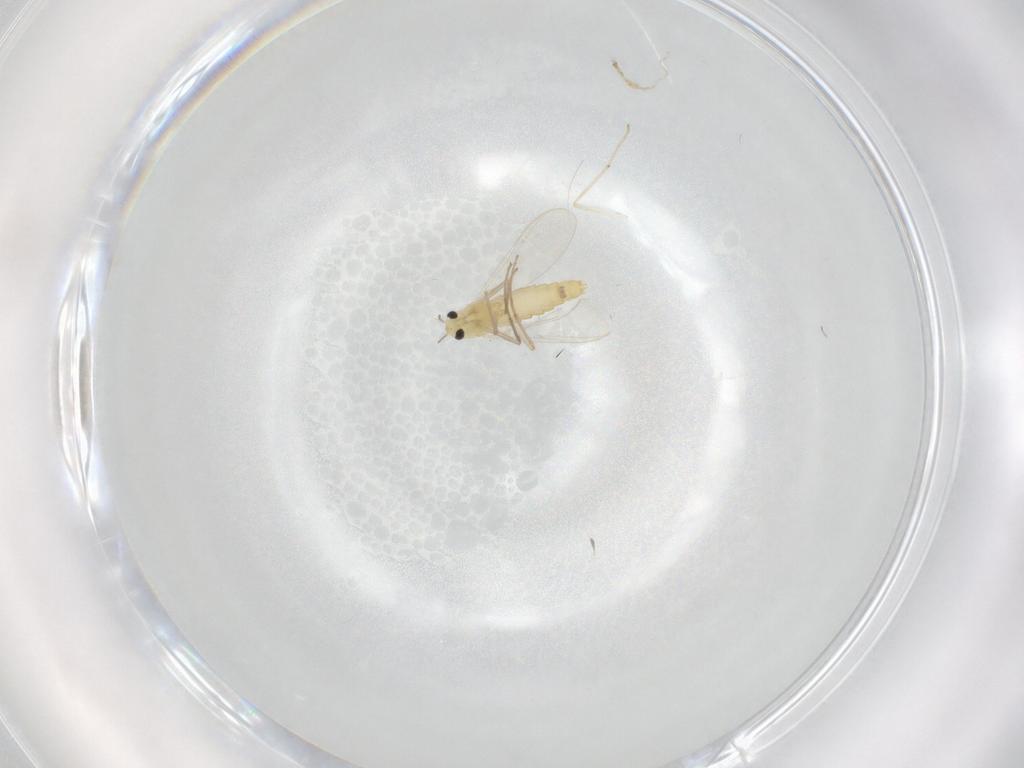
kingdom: Animalia
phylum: Arthropoda
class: Insecta
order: Diptera
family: Chironomidae
